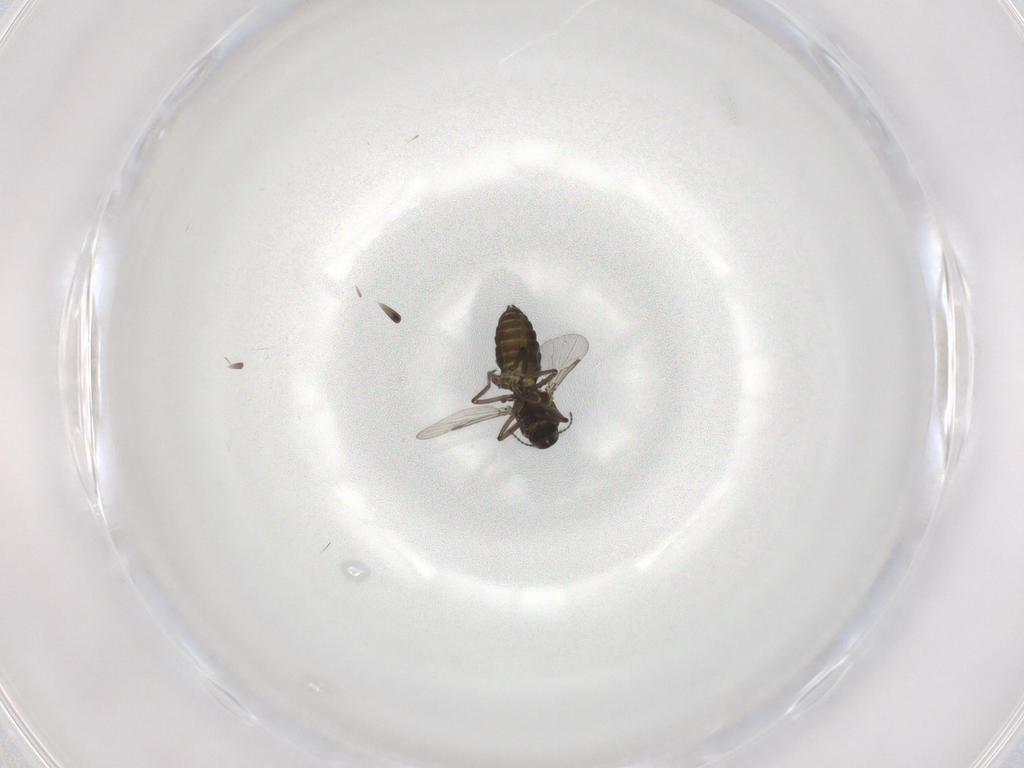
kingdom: Animalia
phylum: Arthropoda
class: Insecta
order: Diptera
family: Ceratopogonidae
